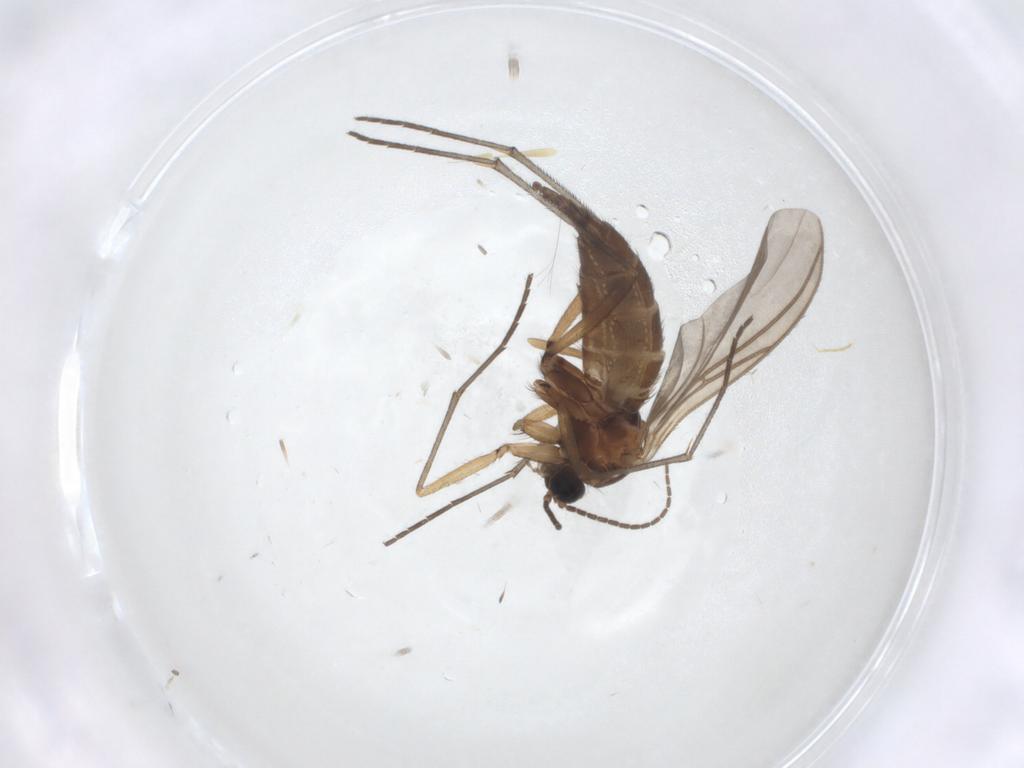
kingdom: Animalia
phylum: Arthropoda
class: Insecta
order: Diptera
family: Sciaridae
